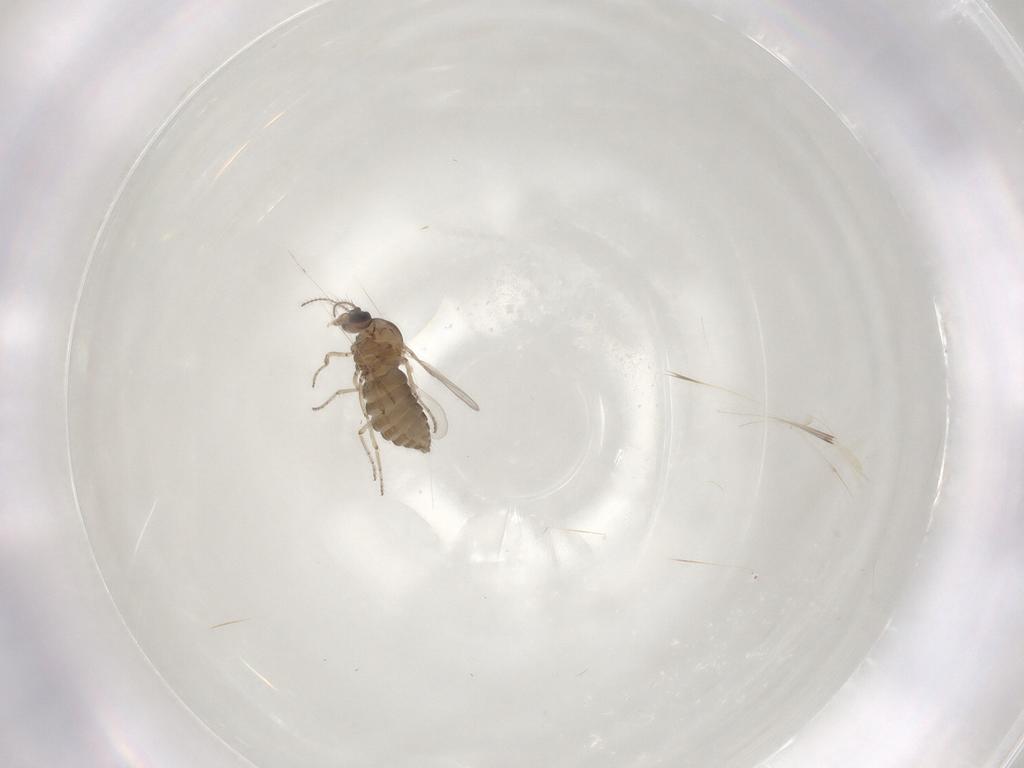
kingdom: Animalia
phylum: Arthropoda
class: Insecta
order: Diptera
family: Ceratopogonidae
